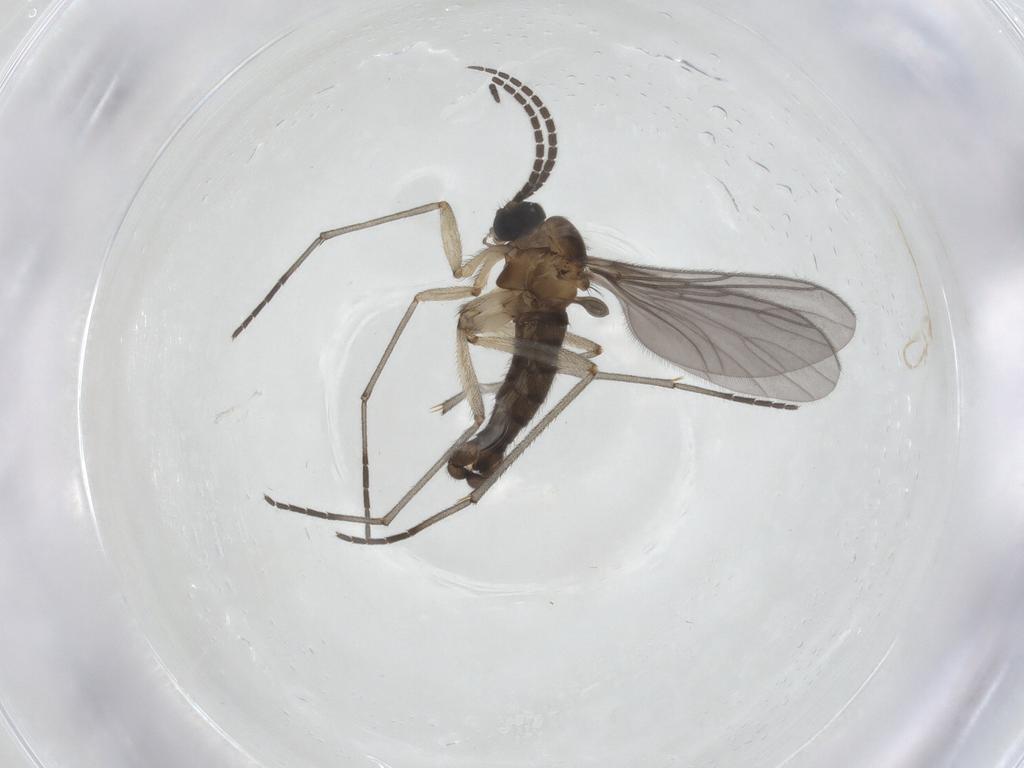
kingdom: Animalia
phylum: Arthropoda
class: Insecta
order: Diptera
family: Sciaridae
